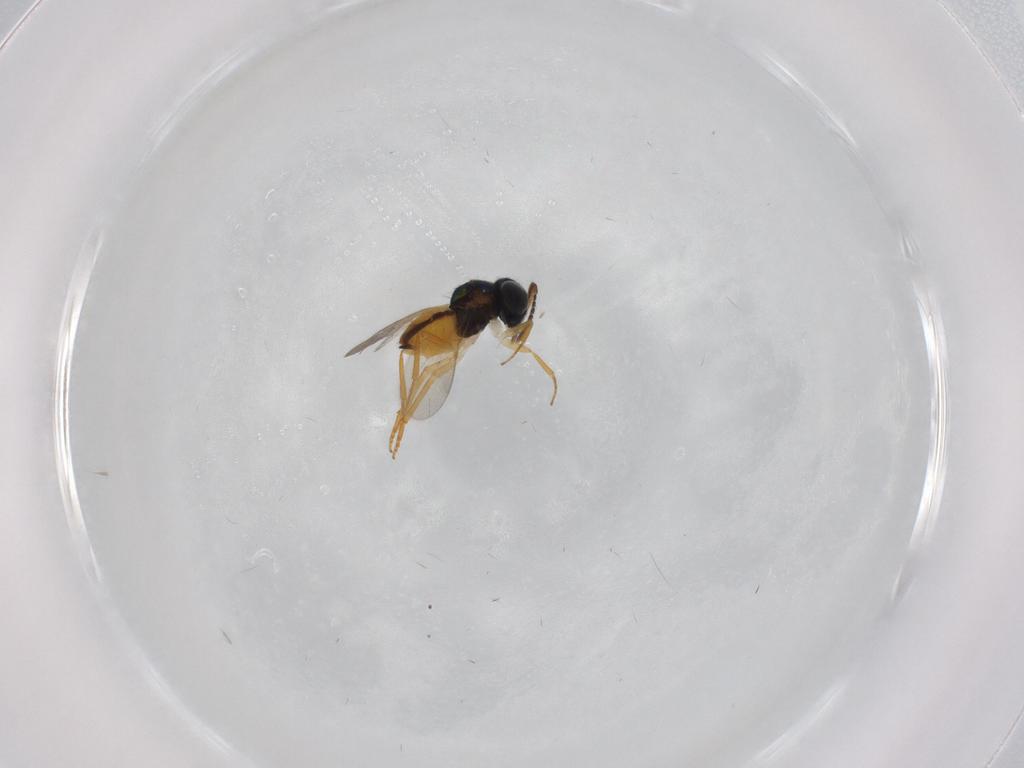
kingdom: Animalia
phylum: Arthropoda
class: Insecta
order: Hymenoptera
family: Encyrtidae
